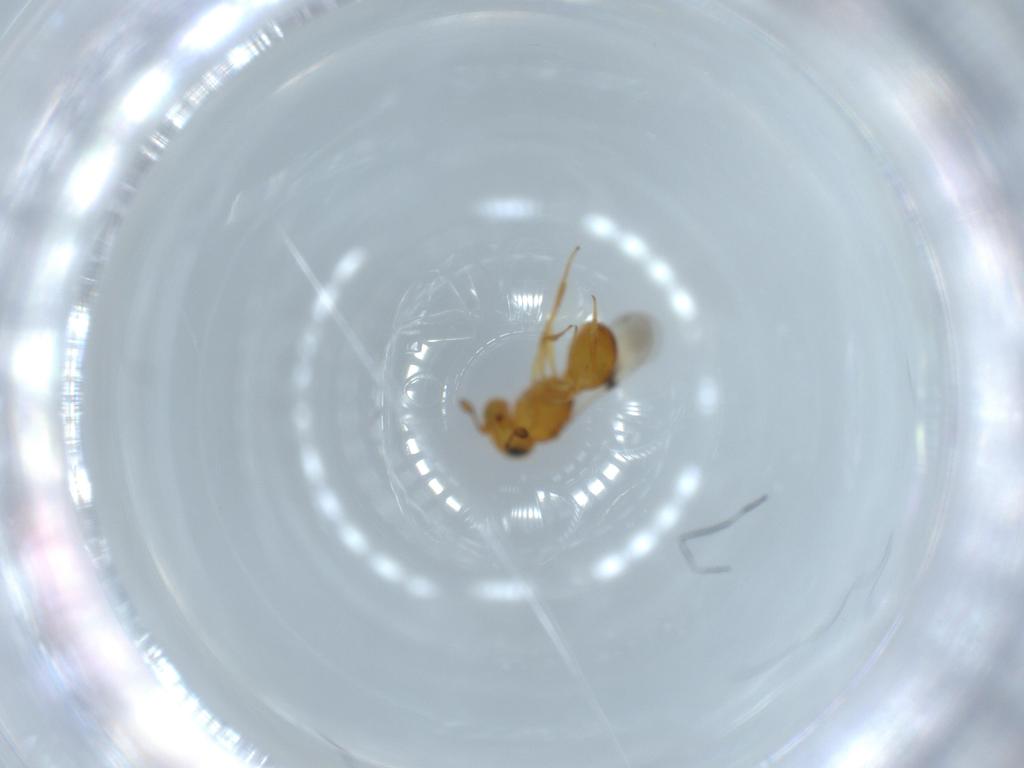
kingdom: Animalia
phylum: Arthropoda
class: Insecta
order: Hymenoptera
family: Scelionidae
